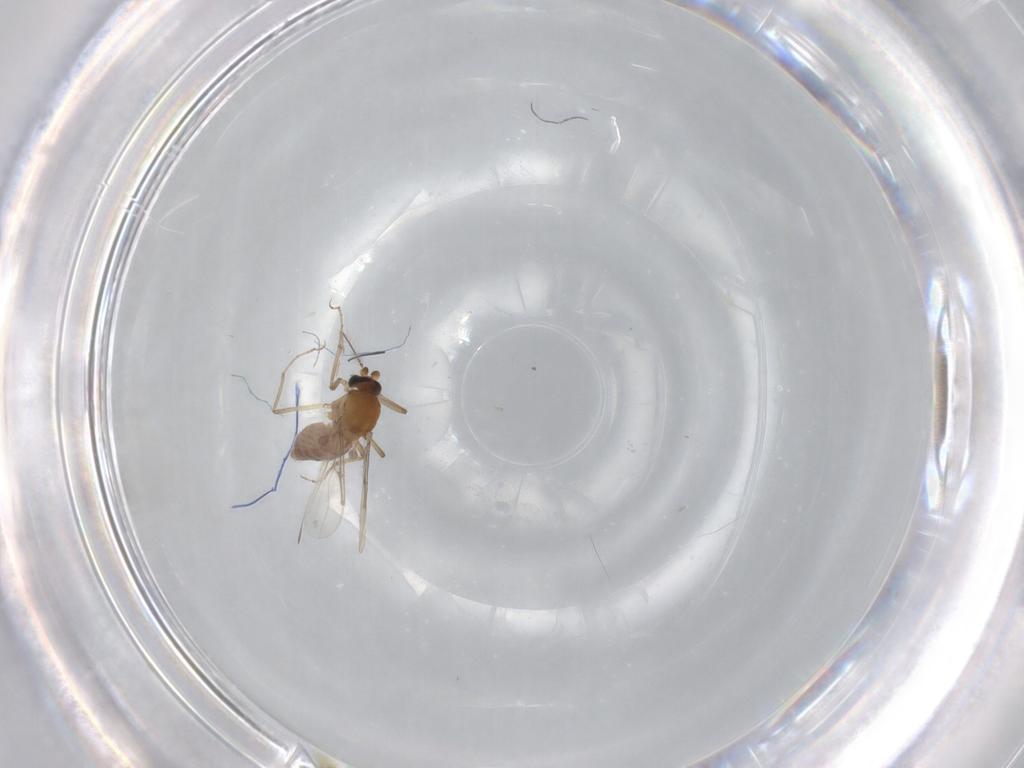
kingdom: Animalia
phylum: Arthropoda
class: Insecta
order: Diptera
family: Ceratopogonidae
